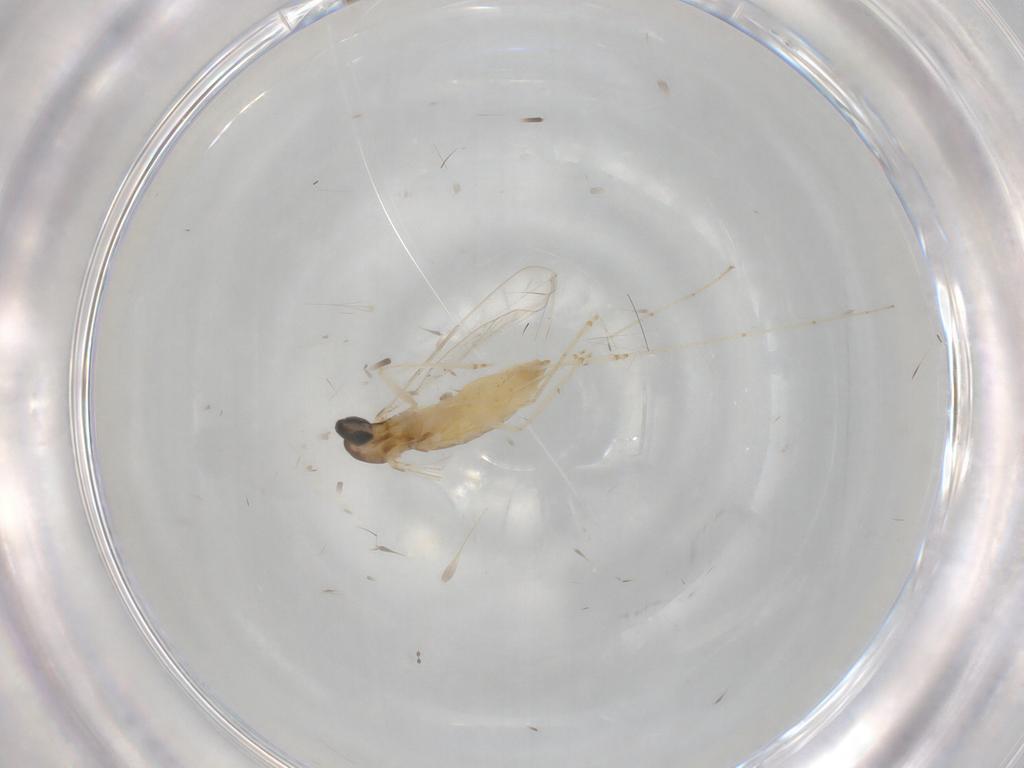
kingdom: Animalia
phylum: Arthropoda
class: Insecta
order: Diptera
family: Cecidomyiidae
